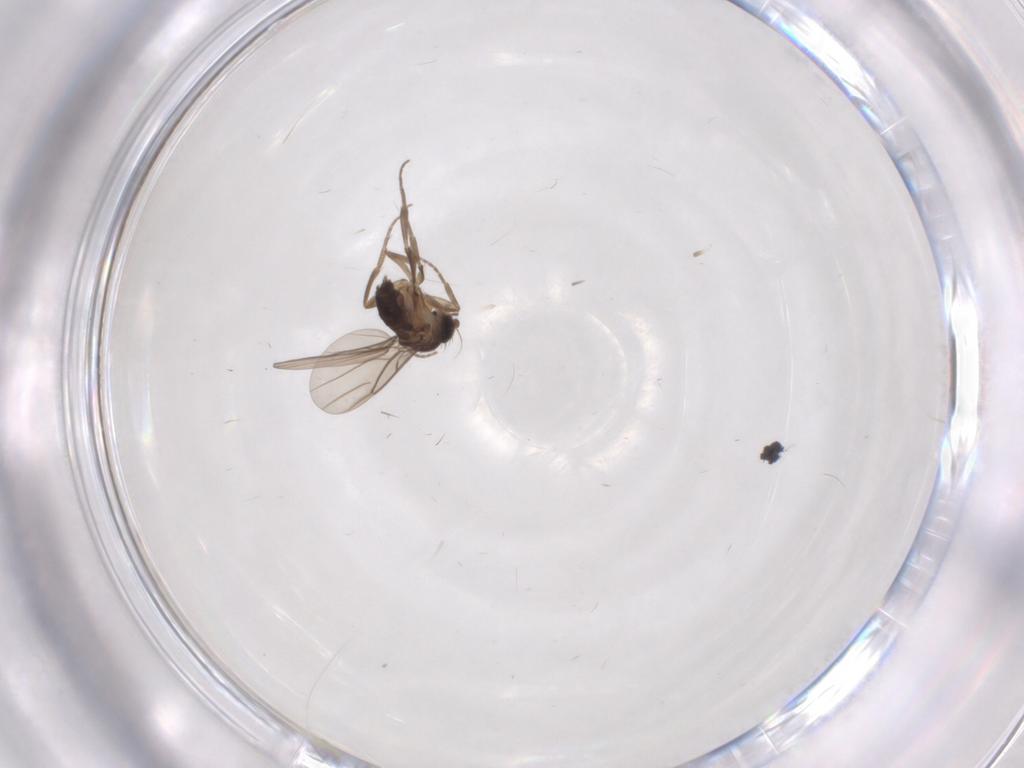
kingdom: Animalia
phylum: Arthropoda
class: Insecta
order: Diptera
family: Phoridae
